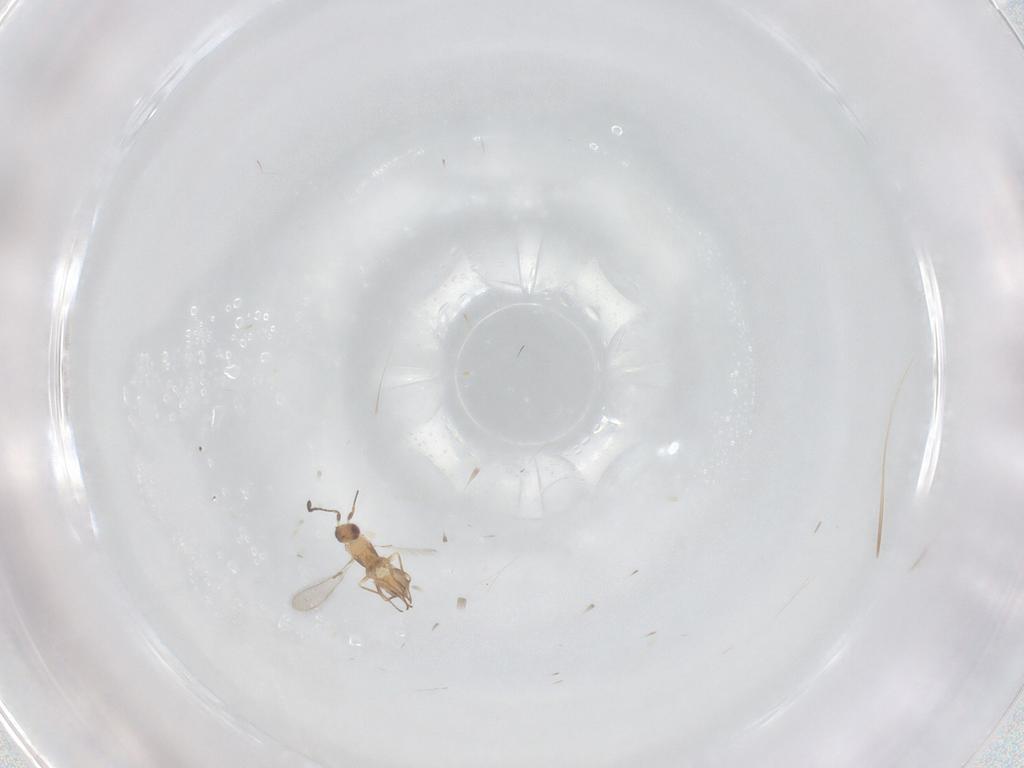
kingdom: Animalia
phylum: Arthropoda
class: Insecta
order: Hymenoptera
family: Mymaridae
